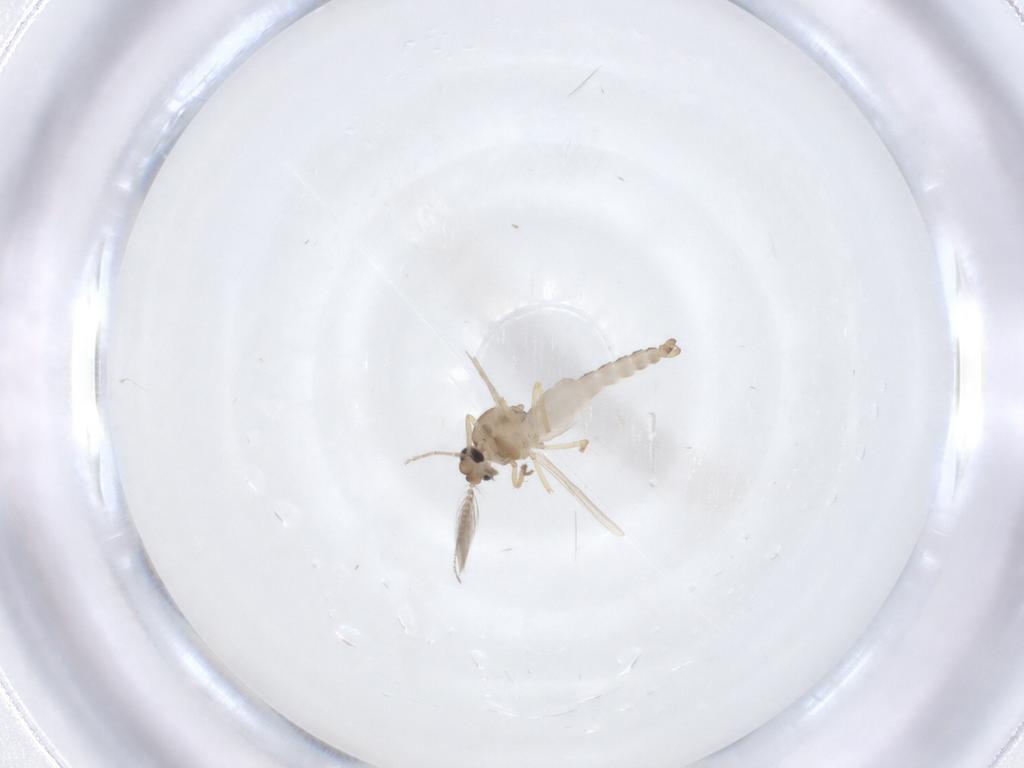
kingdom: Animalia
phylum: Arthropoda
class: Insecta
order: Diptera
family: Ceratopogonidae
